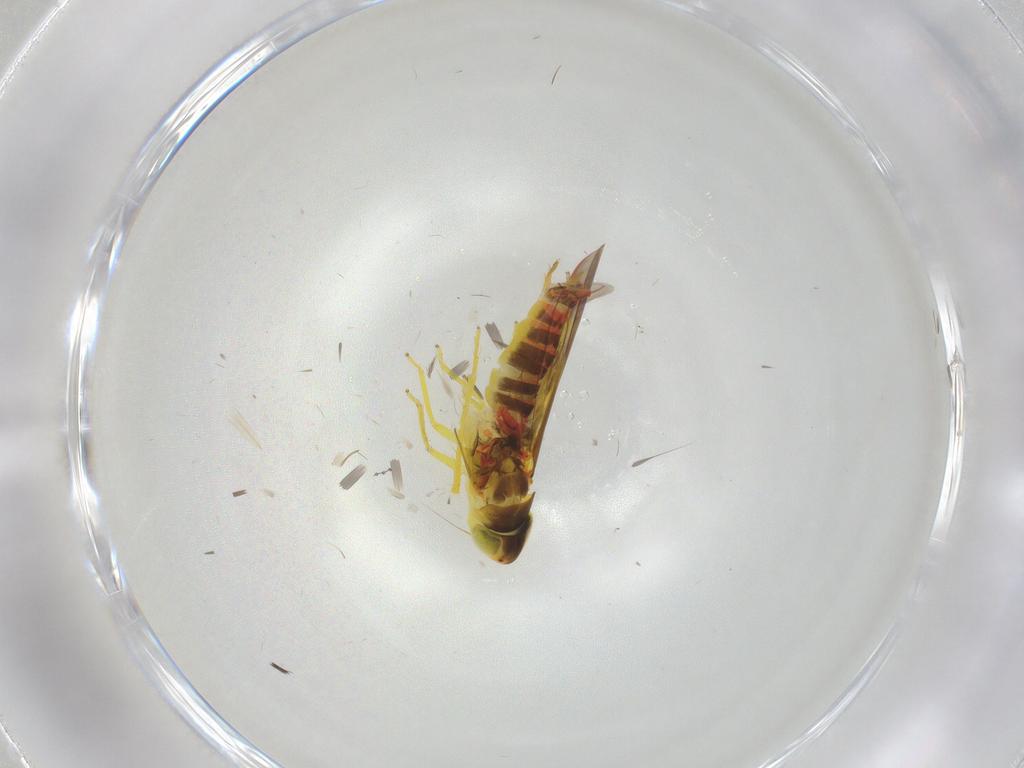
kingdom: Animalia
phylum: Arthropoda
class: Insecta
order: Hemiptera
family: Cicadellidae
